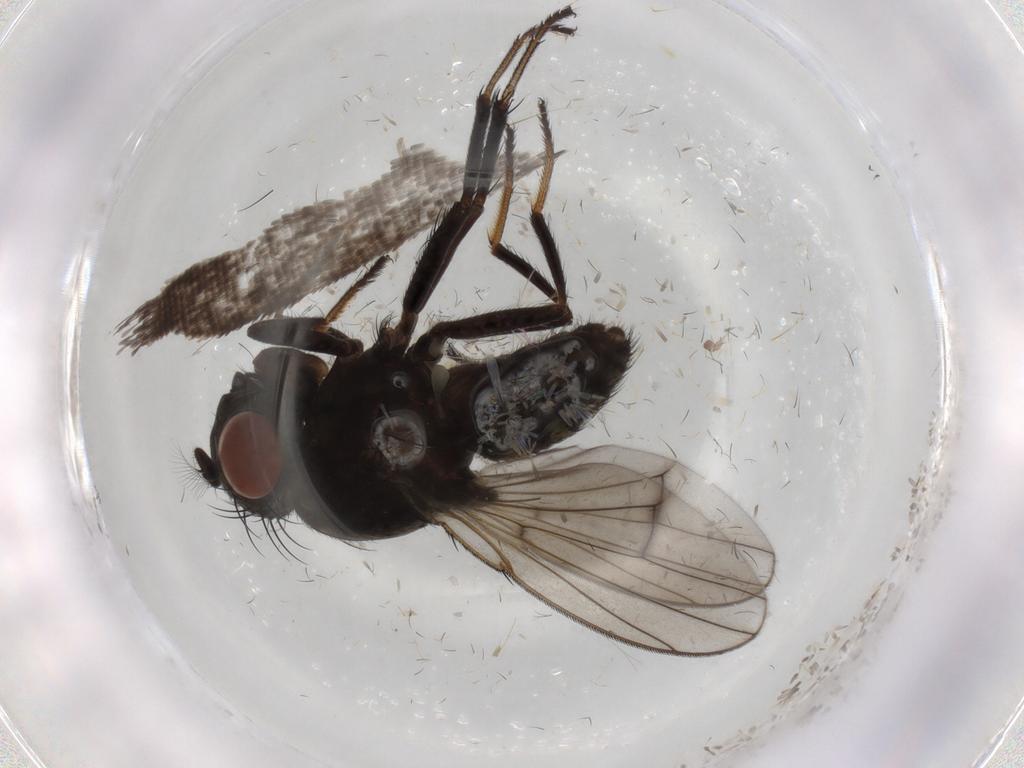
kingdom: Animalia
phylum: Arthropoda
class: Insecta
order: Diptera
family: Ephydridae
